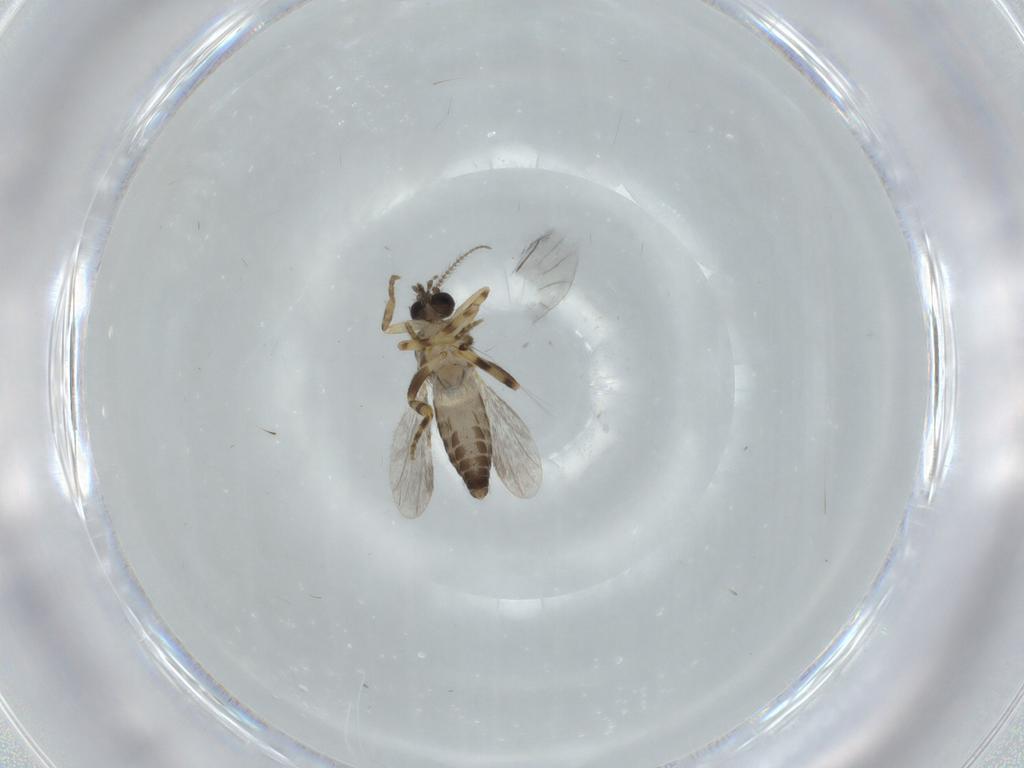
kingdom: Animalia
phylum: Arthropoda
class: Insecta
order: Diptera
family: Ceratopogonidae
